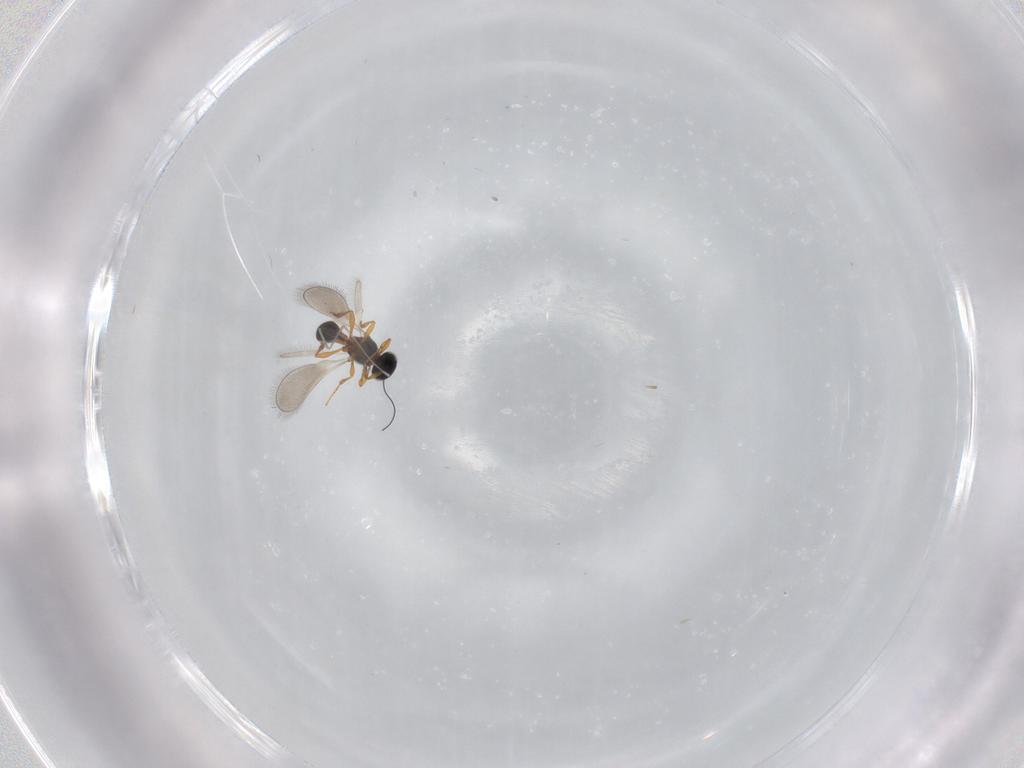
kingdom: Animalia
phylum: Arthropoda
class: Insecta
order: Hymenoptera
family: Platygastridae
